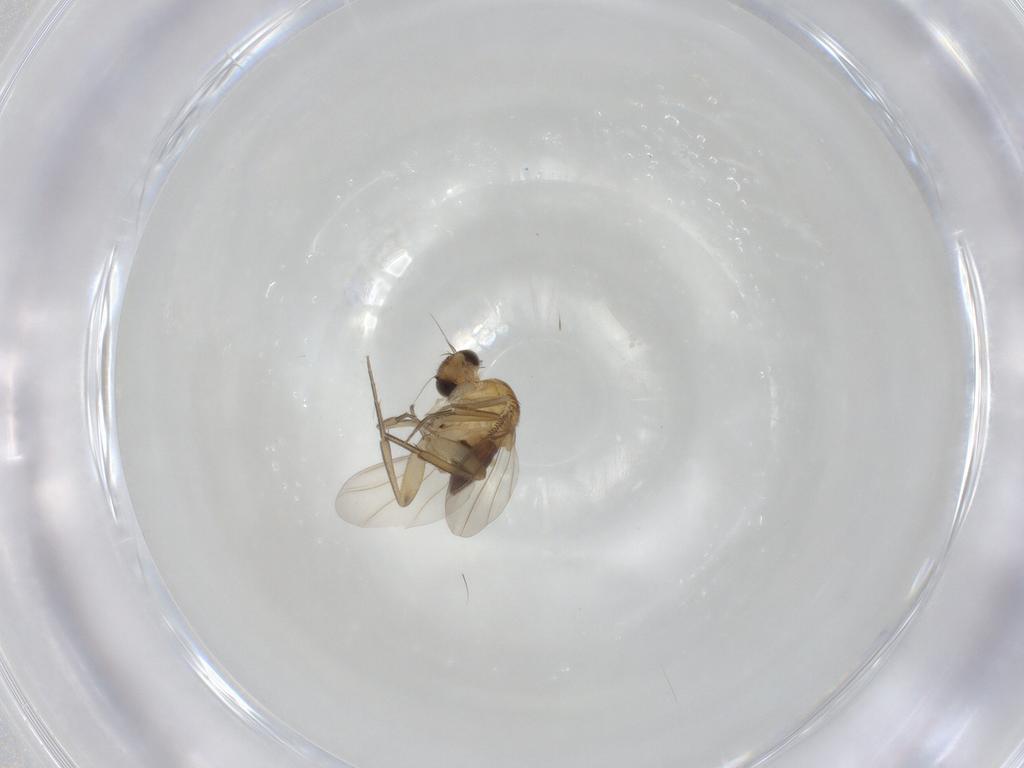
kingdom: Animalia
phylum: Arthropoda
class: Insecta
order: Diptera
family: Phoridae
